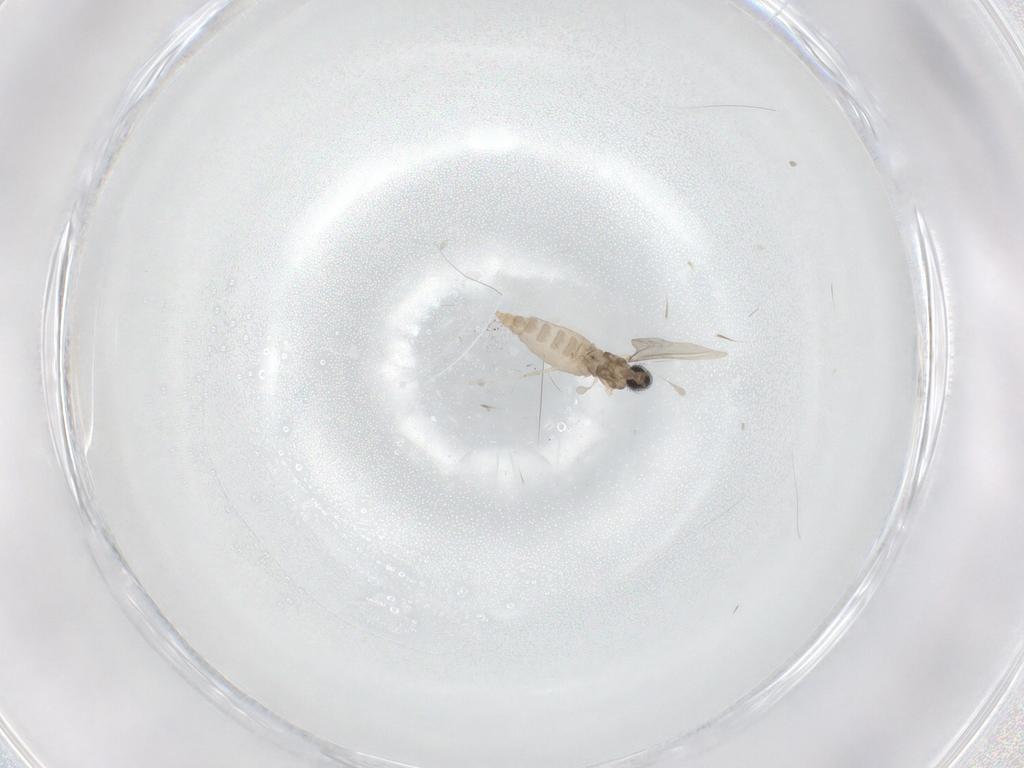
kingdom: Animalia
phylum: Arthropoda
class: Insecta
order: Diptera
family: Cecidomyiidae
